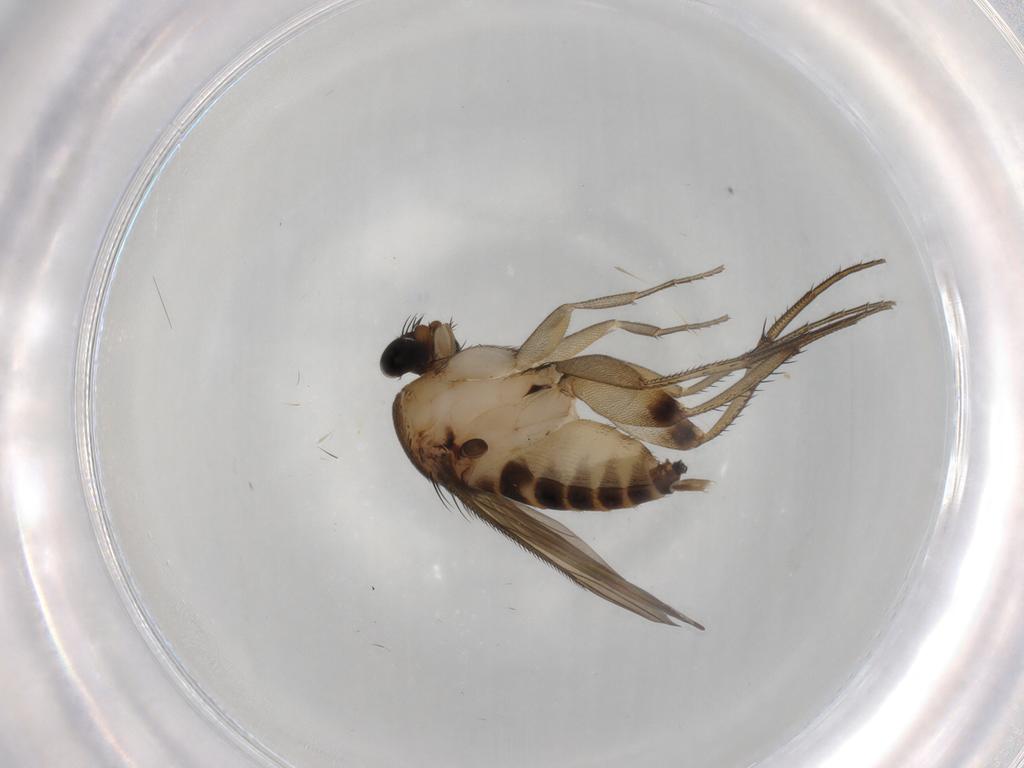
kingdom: Animalia
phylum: Arthropoda
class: Insecta
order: Diptera
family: Phoridae
